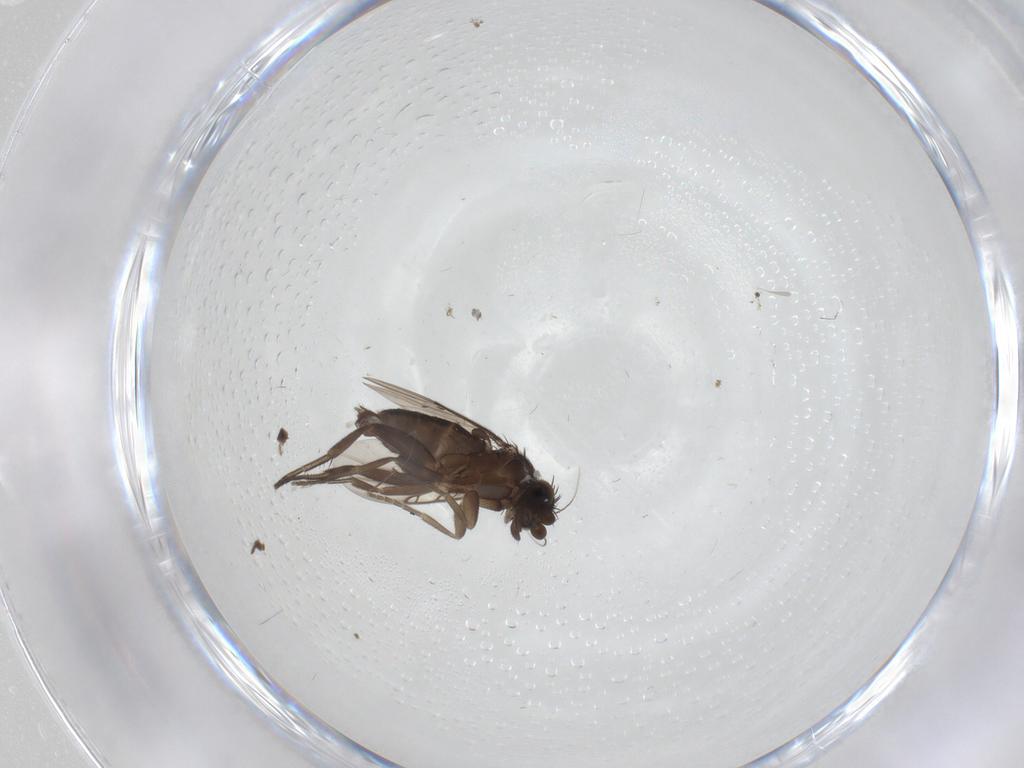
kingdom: Animalia
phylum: Arthropoda
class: Insecta
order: Diptera
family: Phoridae
